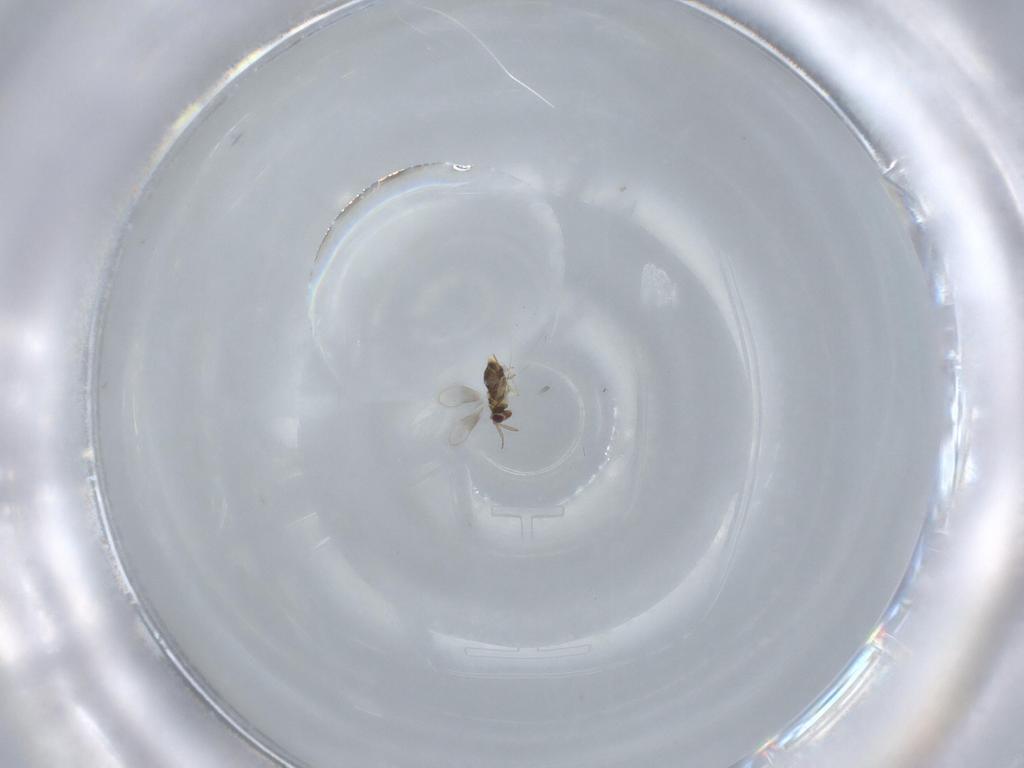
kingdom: Animalia
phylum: Arthropoda
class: Insecta
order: Hymenoptera
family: Aphelinidae
